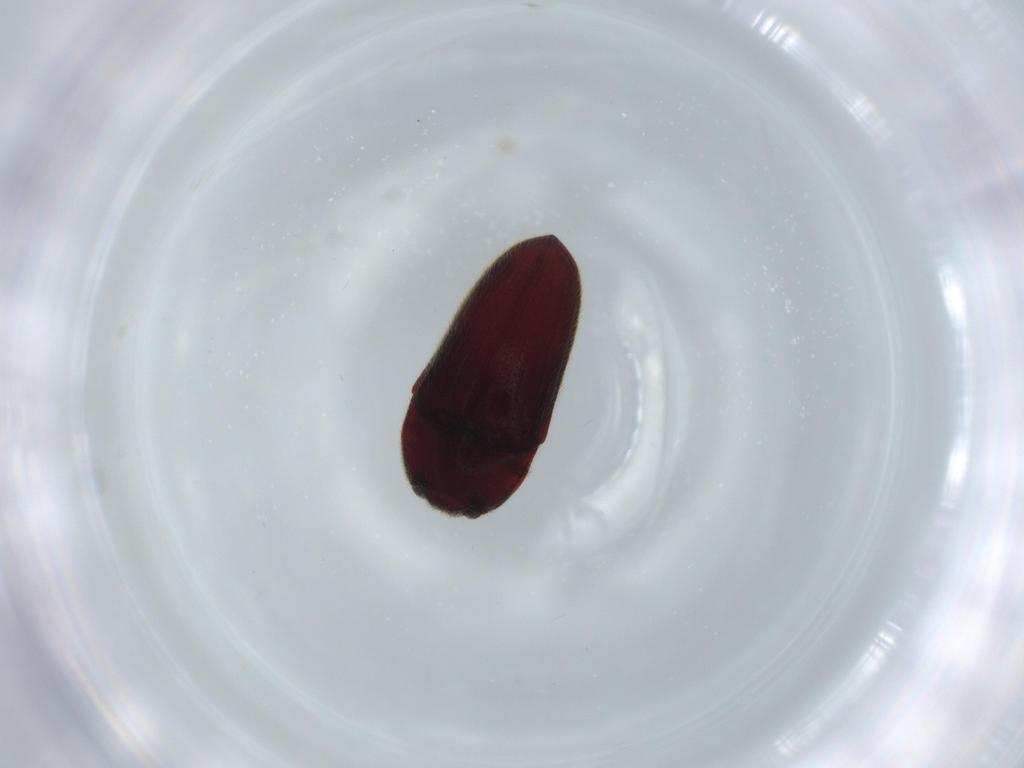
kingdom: Animalia
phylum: Arthropoda
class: Insecta
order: Coleoptera
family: Throscidae
